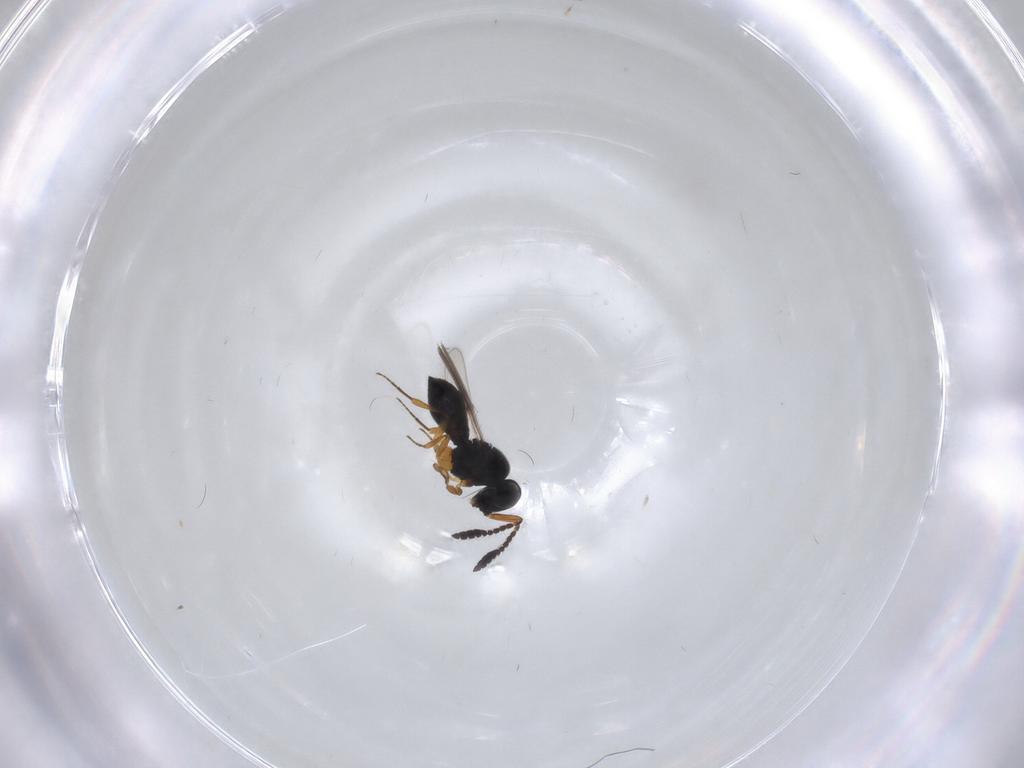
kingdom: Animalia
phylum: Arthropoda
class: Insecta
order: Hymenoptera
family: Scelionidae
